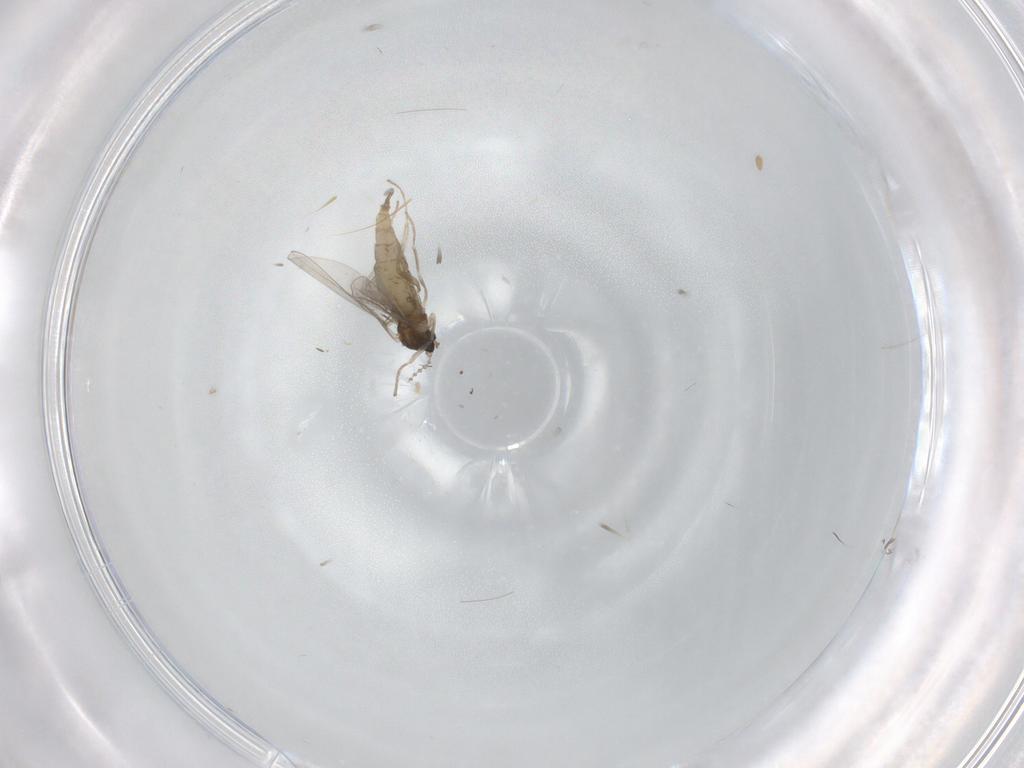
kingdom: Animalia
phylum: Arthropoda
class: Insecta
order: Diptera
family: Cecidomyiidae
